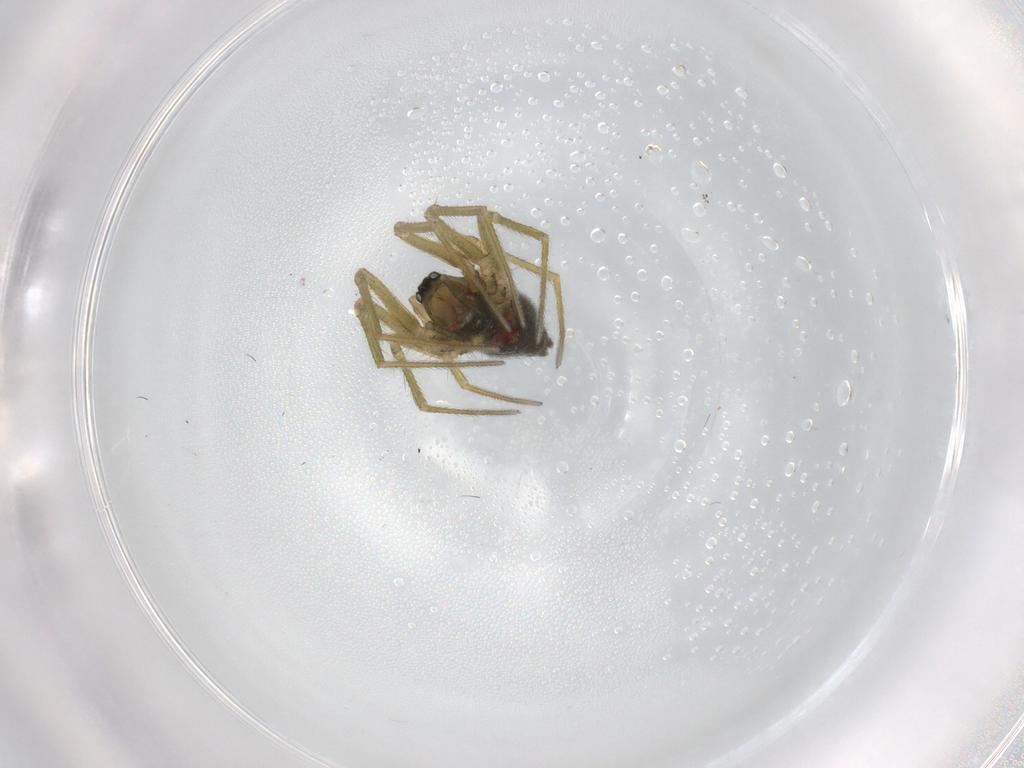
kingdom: Animalia
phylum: Arthropoda
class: Arachnida
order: Araneae
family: Linyphiidae
